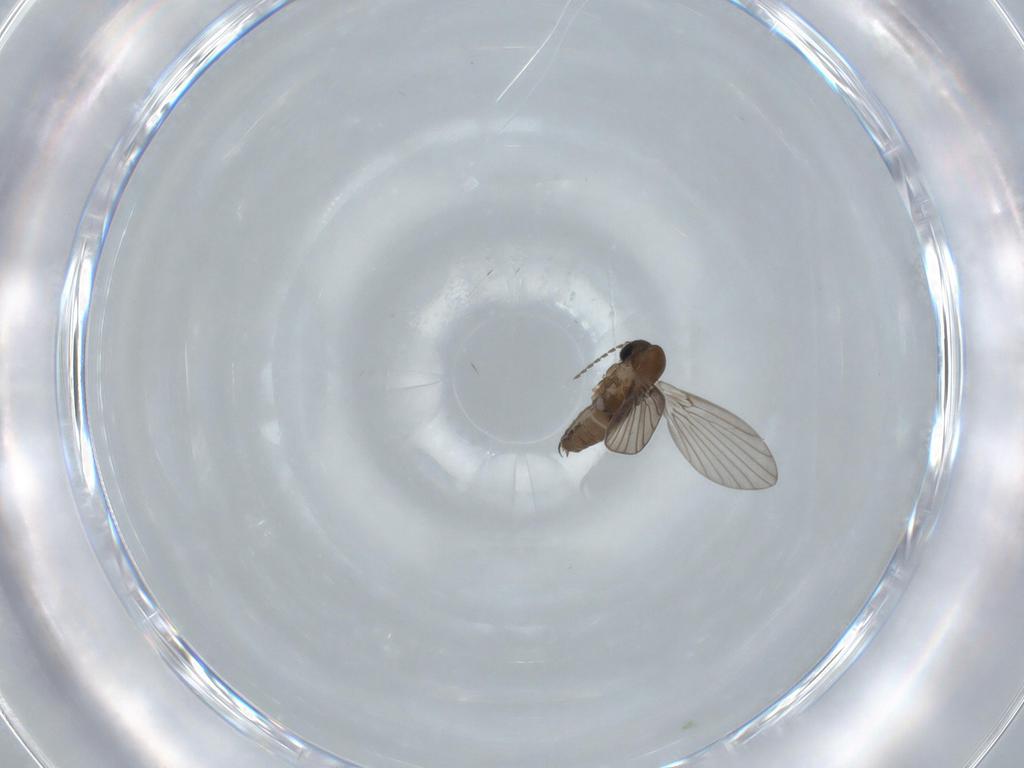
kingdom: Animalia
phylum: Arthropoda
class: Insecta
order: Diptera
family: Psychodidae
